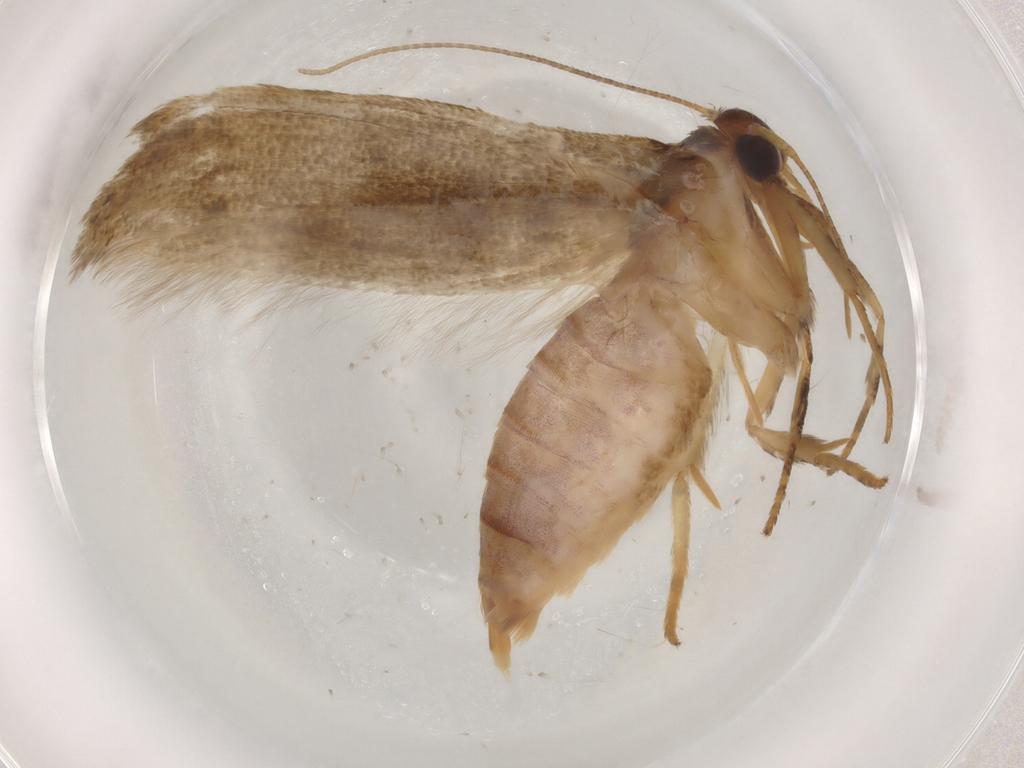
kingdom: Animalia
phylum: Arthropoda
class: Insecta
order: Lepidoptera
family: Blastobasidae
